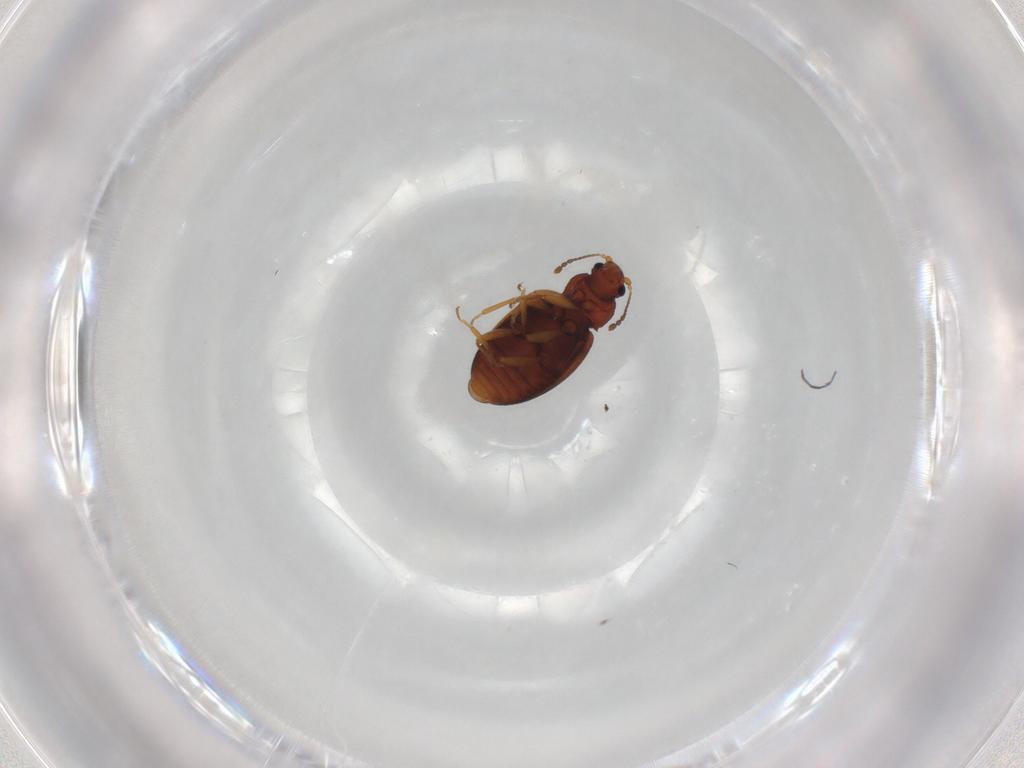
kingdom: Animalia
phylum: Arthropoda
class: Insecta
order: Coleoptera
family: Latridiidae
